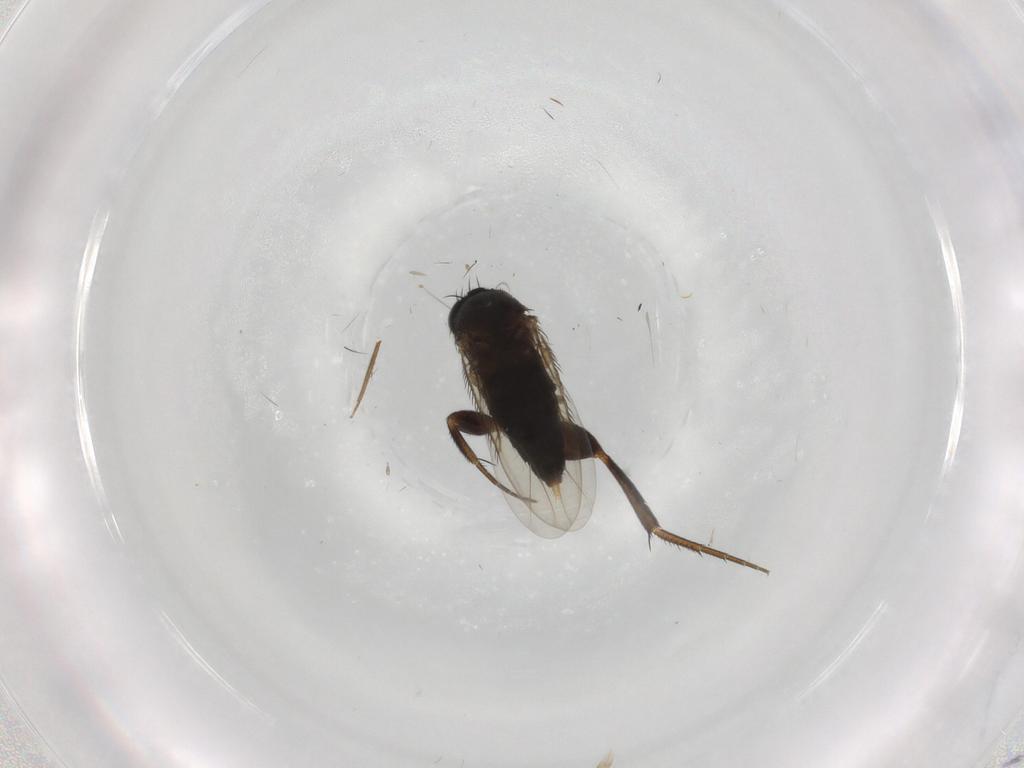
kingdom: Animalia
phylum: Arthropoda
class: Insecta
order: Diptera
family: Phoridae
